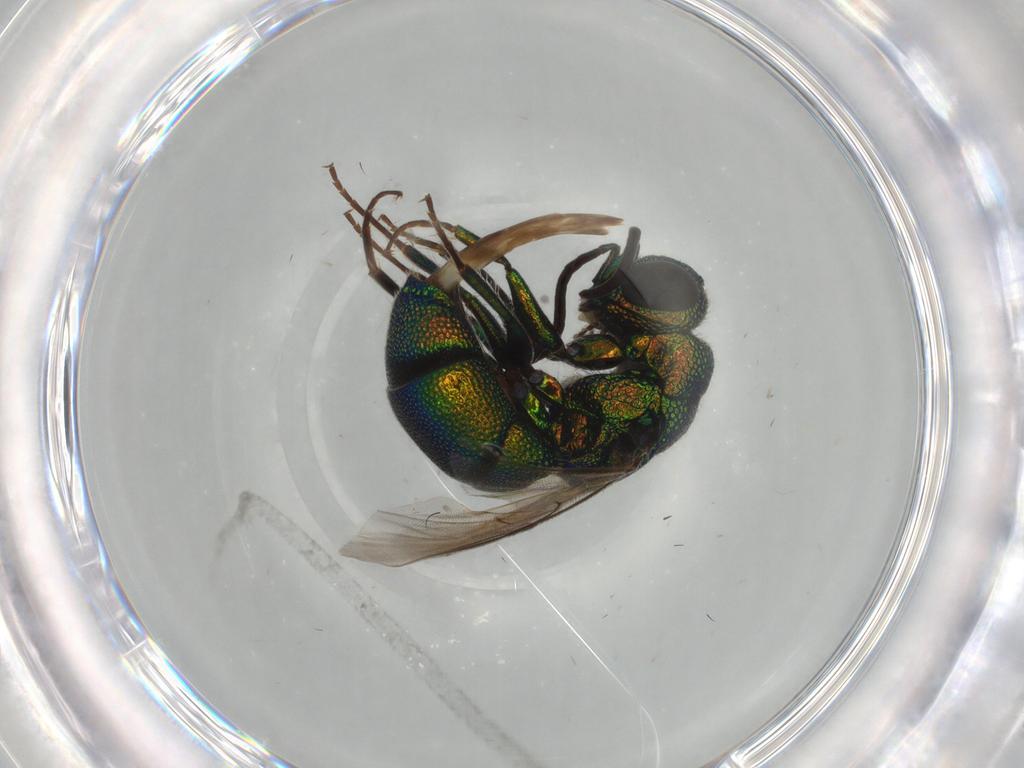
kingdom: Animalia
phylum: Arthropoda
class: Insecta
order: Hymenoptera
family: Chrysididae
